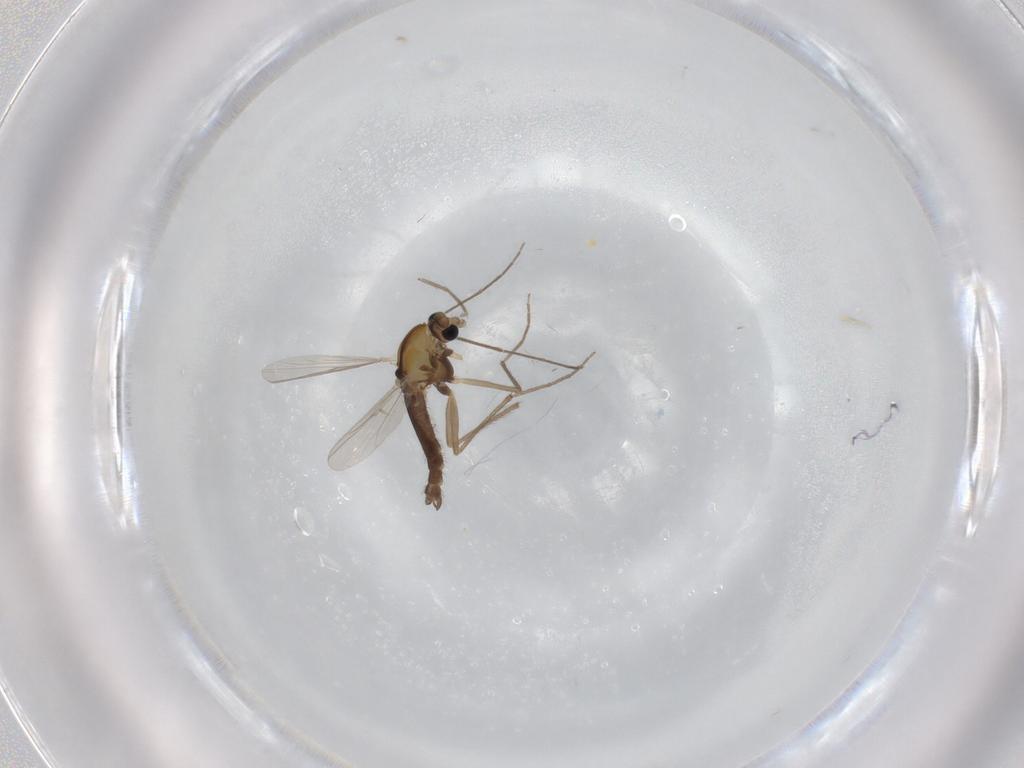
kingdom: Animalia
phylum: Arthropoda
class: Insecta
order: Diptera
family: Chironomidae
